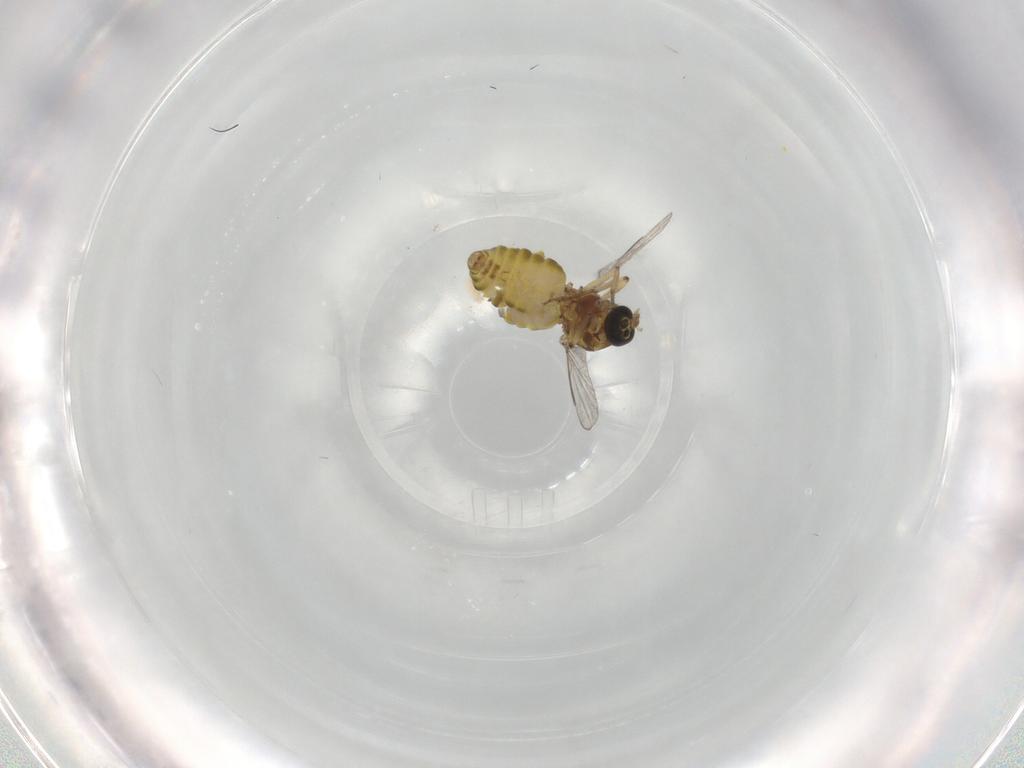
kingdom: Animalia
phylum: Arthropoda
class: Insecta
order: Diptera
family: Ceratopogonidae
